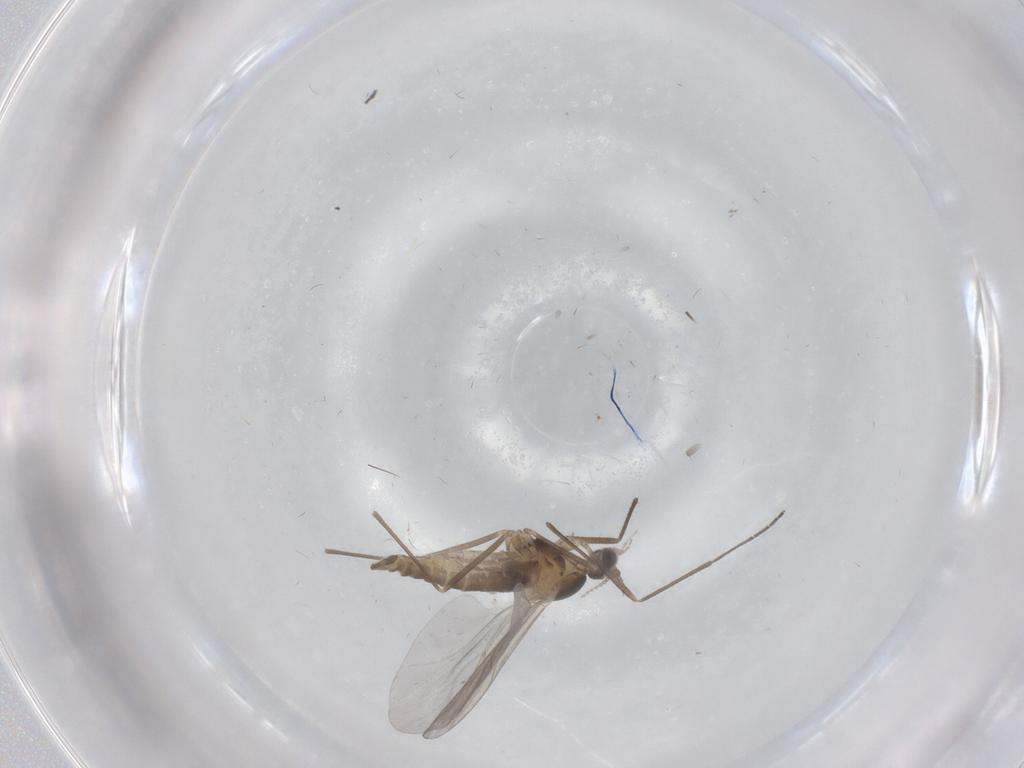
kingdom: Animalia
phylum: Arthropoda
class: Insecta
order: Diptera
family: Cecidomyiidae
